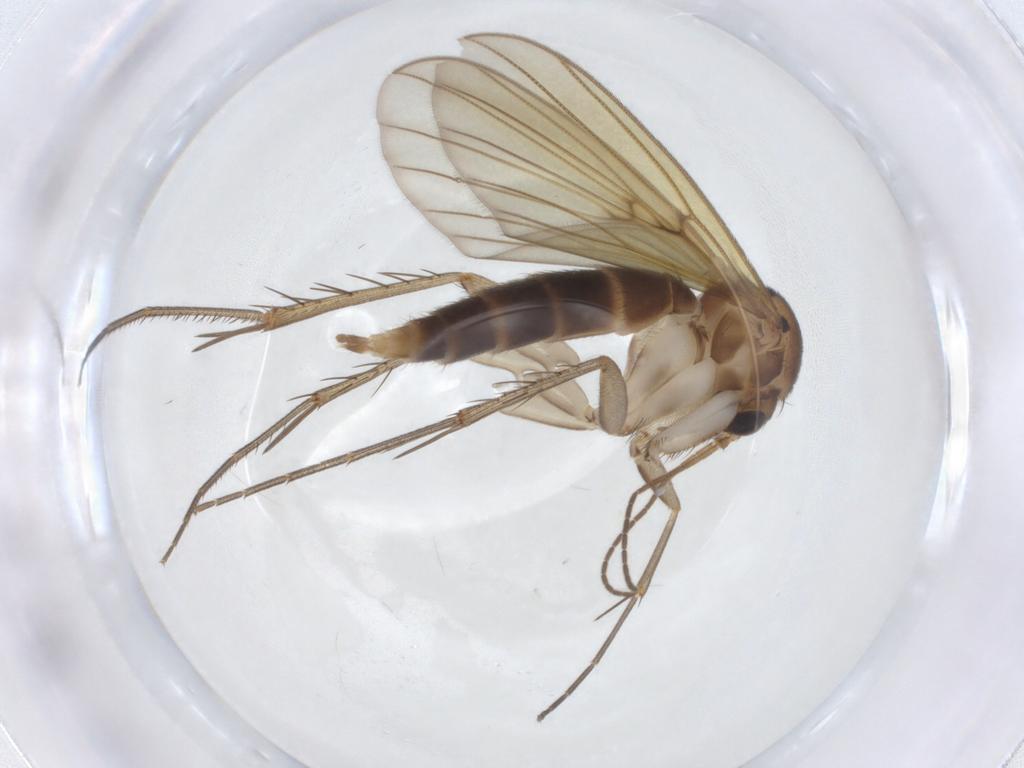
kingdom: Animalia
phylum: Arthropoda
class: Insecta
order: Diptera
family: Mycetophilidae
